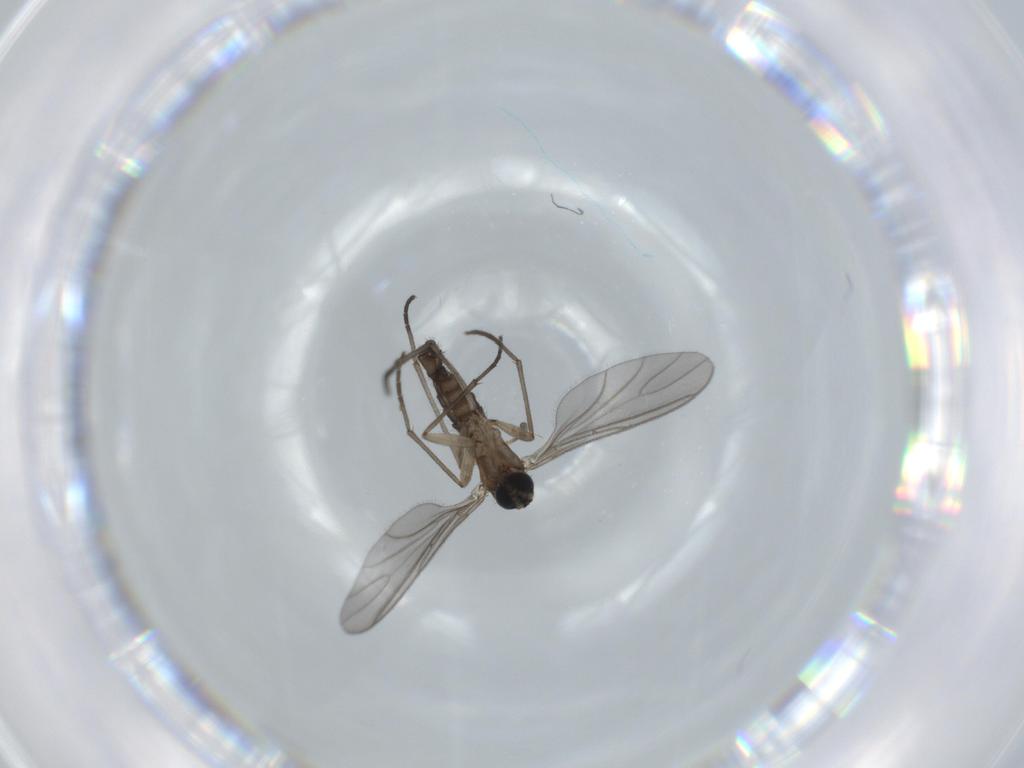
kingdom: Animalia
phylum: Arthropoda
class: Insecta
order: Diptera
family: Sciaridae
